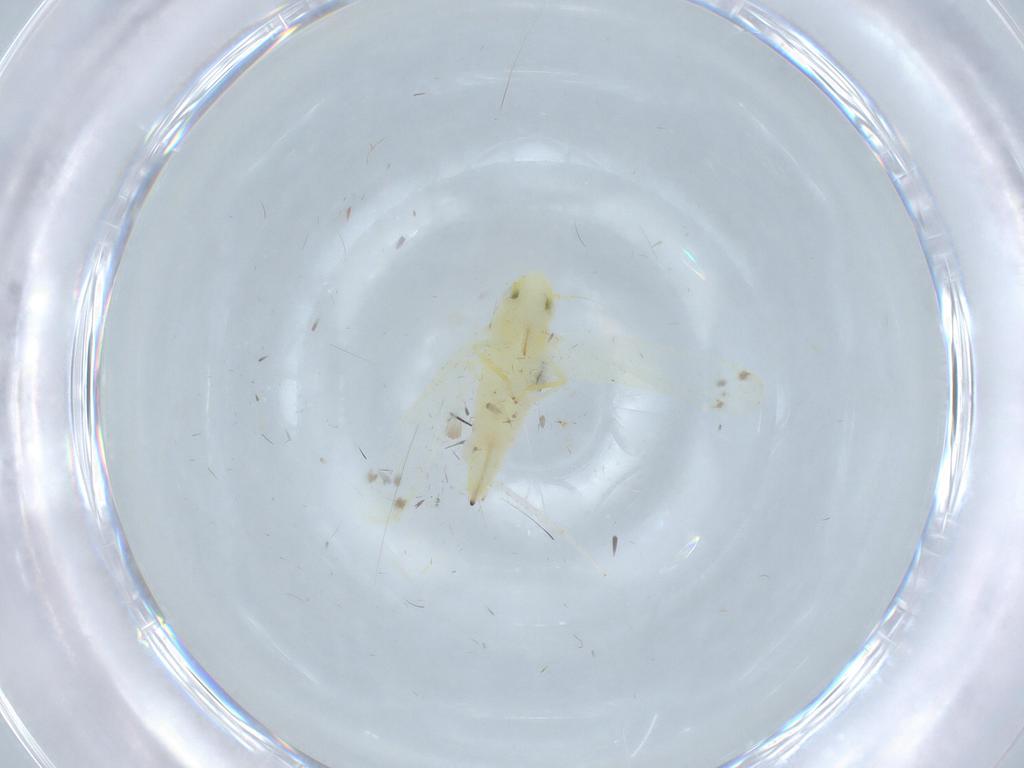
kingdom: Animalia
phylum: Arthropoda
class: Insecta
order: Hemiptera
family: Cicadellidae
